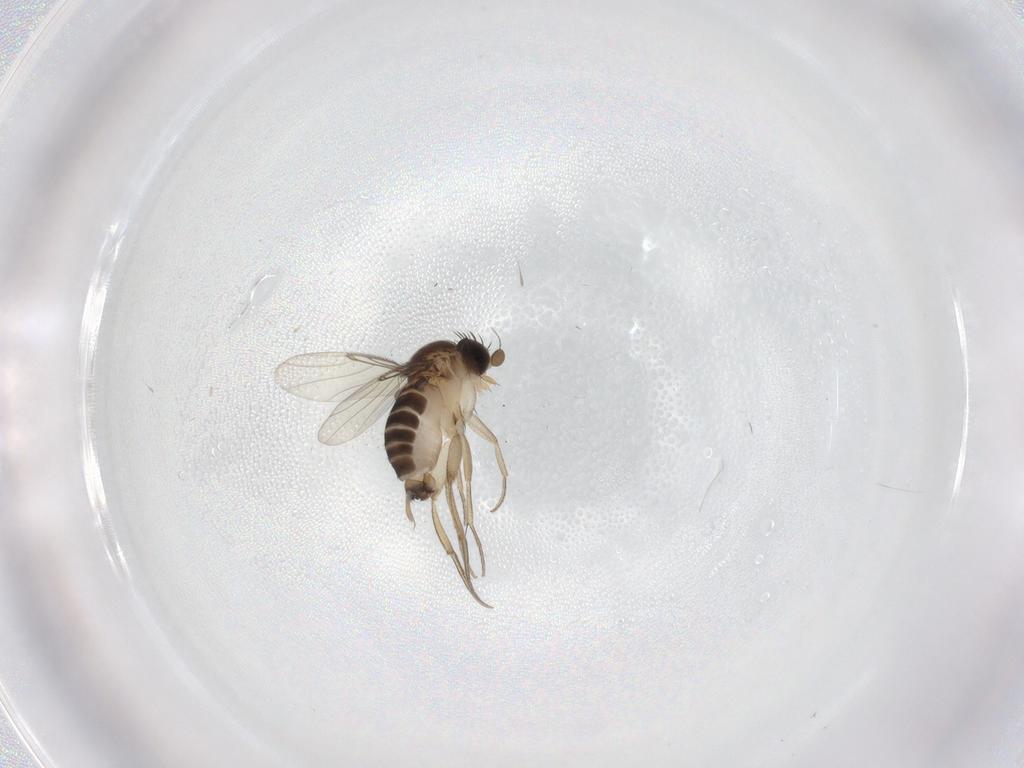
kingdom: Animalia
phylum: Arthropoda
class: Insecta
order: Diptera
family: Phoridae
